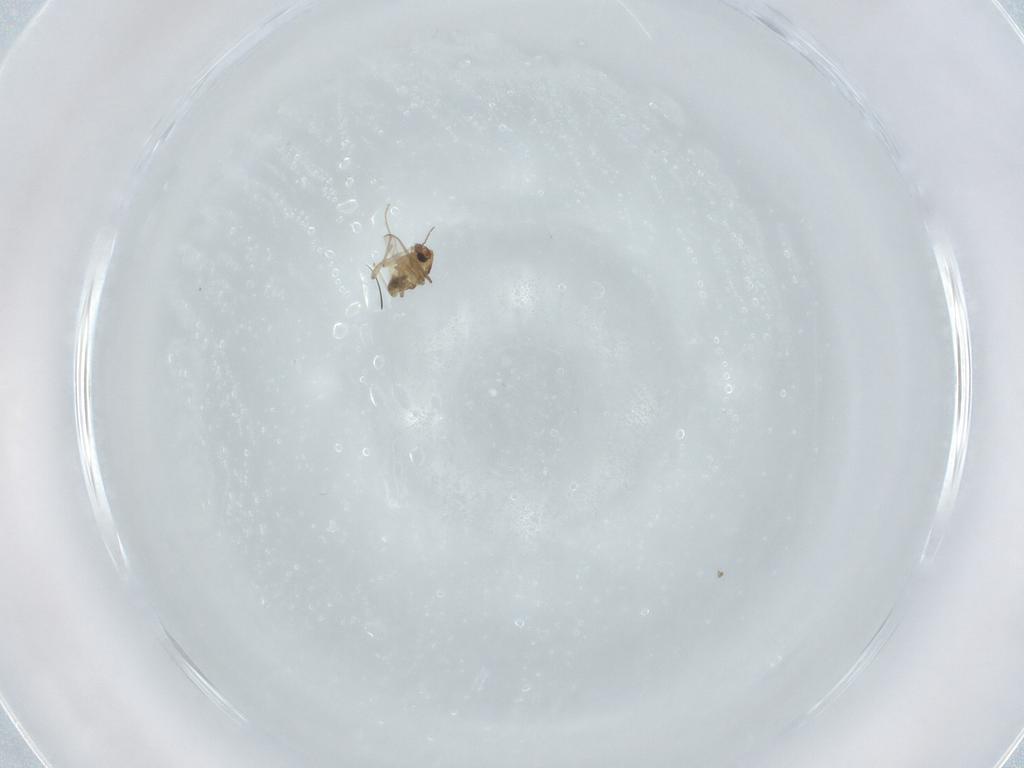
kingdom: Animalia
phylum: Arthropoda
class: Insecta
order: Diptera
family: Chironomidae
